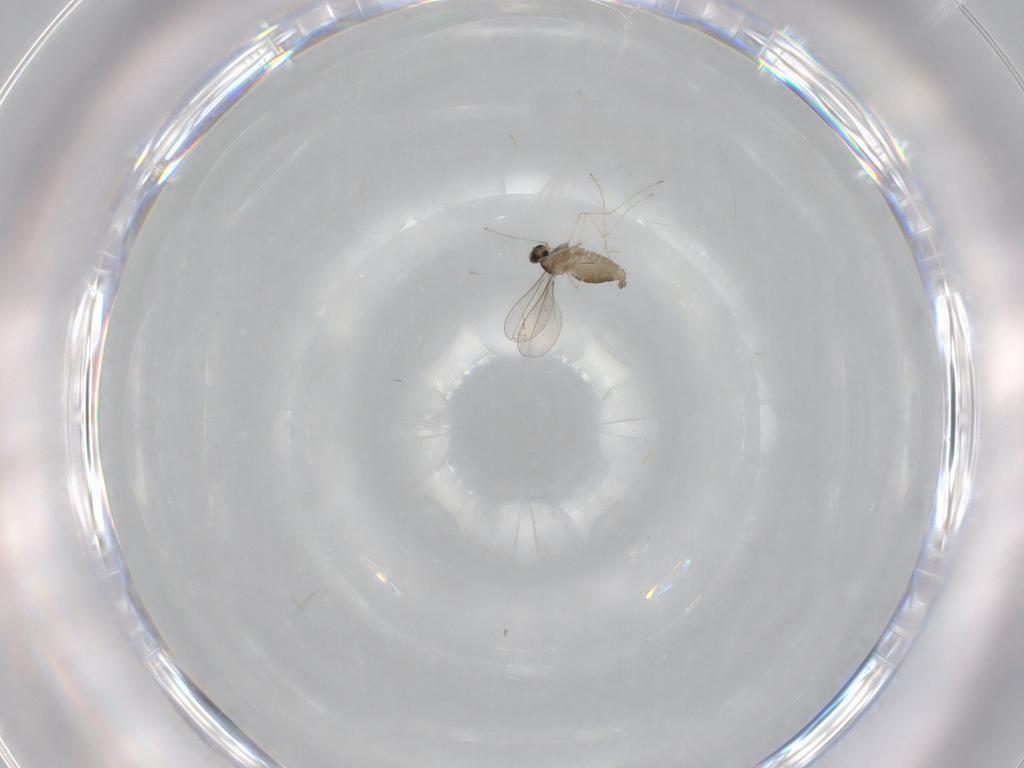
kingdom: Animalia
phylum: Arthropoda
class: Insecta
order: Diptera
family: Cecidomyiidae
